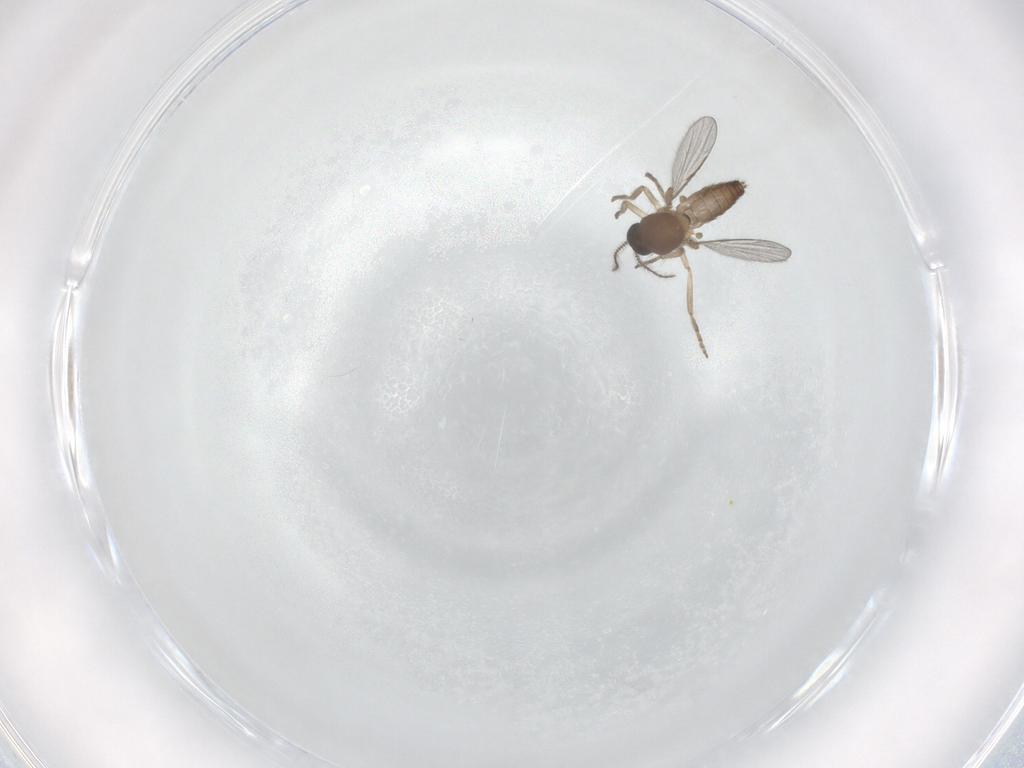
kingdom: Animalia
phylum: Arthropoda
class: Insecta
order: Diptera
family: Ceratopogonidae
